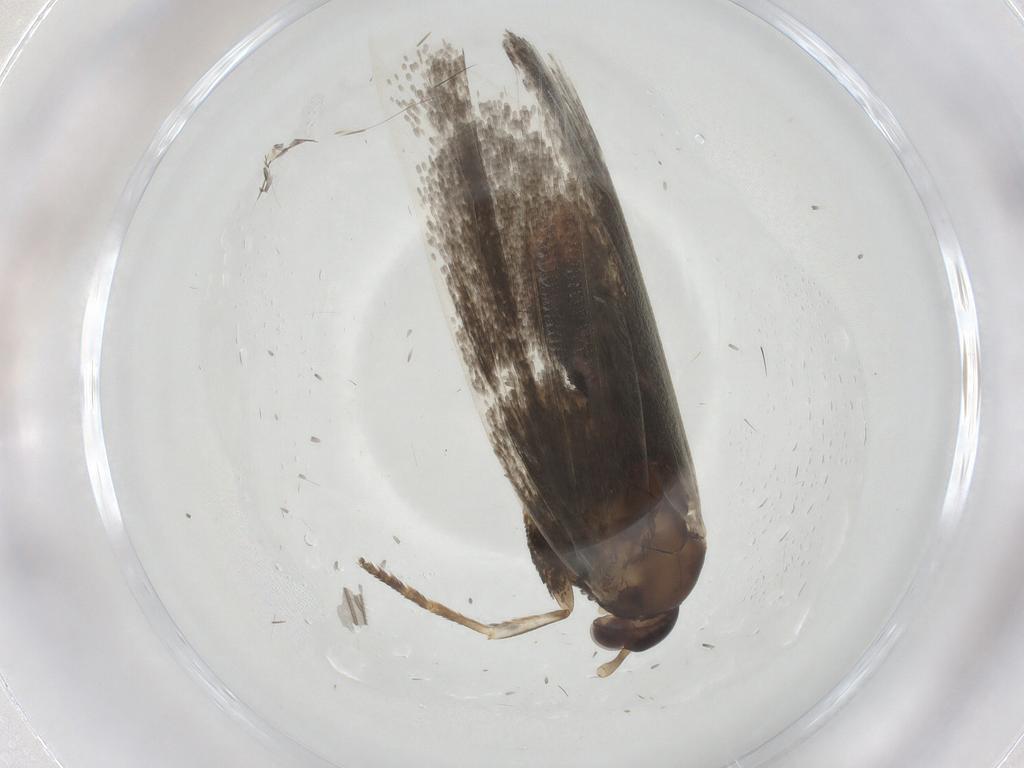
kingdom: Animalia
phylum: Arthropoda
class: Insecta
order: Lepidoptera
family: Lecithoceridae
